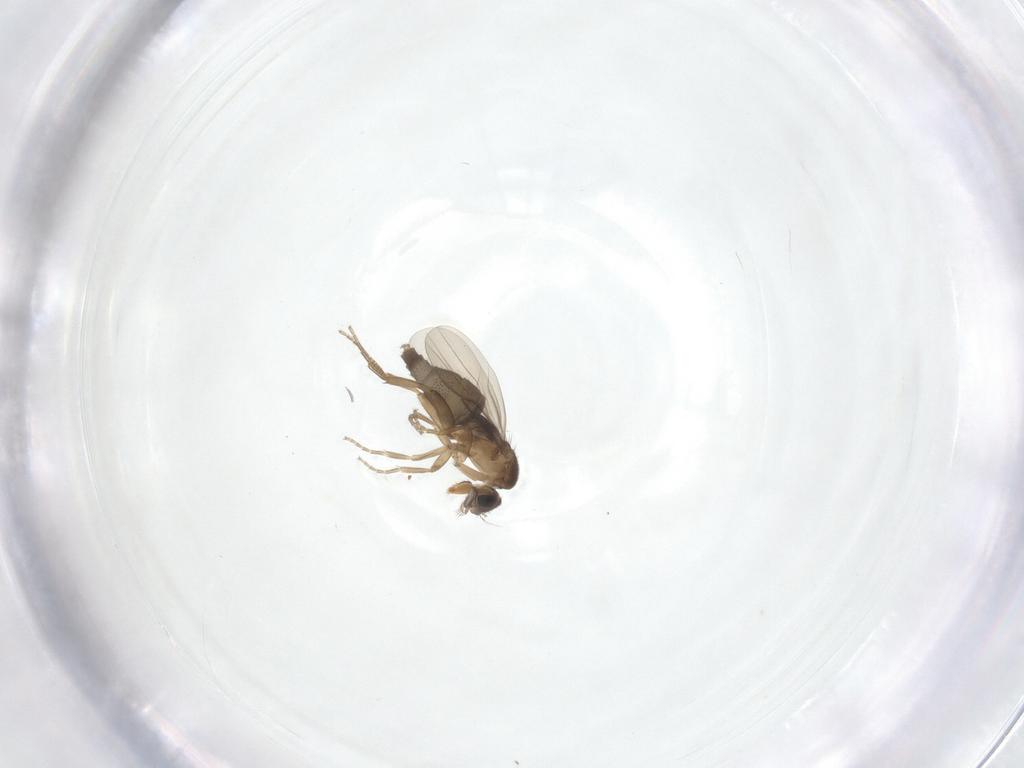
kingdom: Animalia
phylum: Arthropoda
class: Insecta
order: Diptera
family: Phoridae
